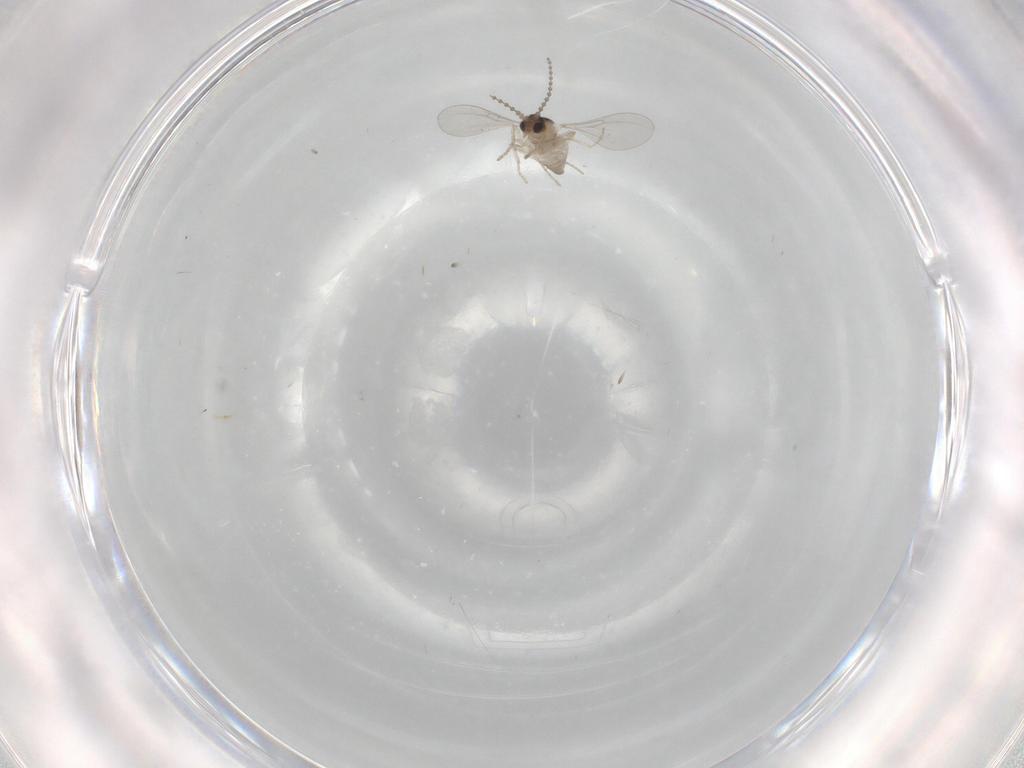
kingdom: Animalia
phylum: Arthropoda
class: Insecta
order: Diptera
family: Cecidomyiidae
